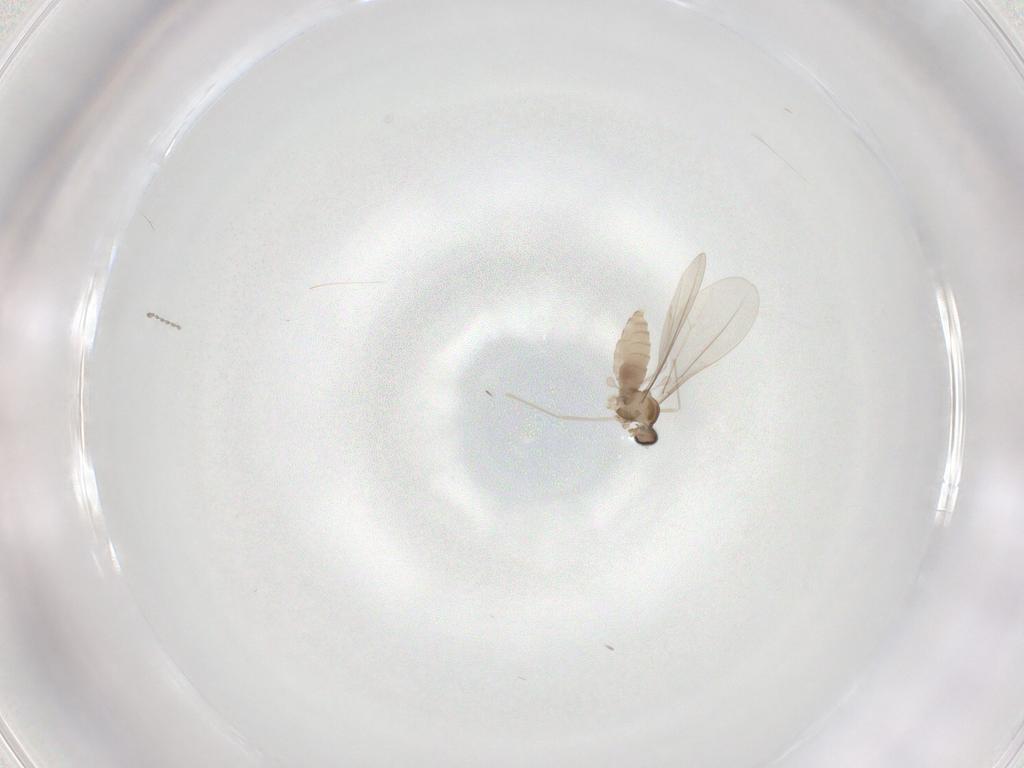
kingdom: Animalia
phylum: Arthropoda
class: Insecta
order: Diptera
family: Cecidomyiidae
